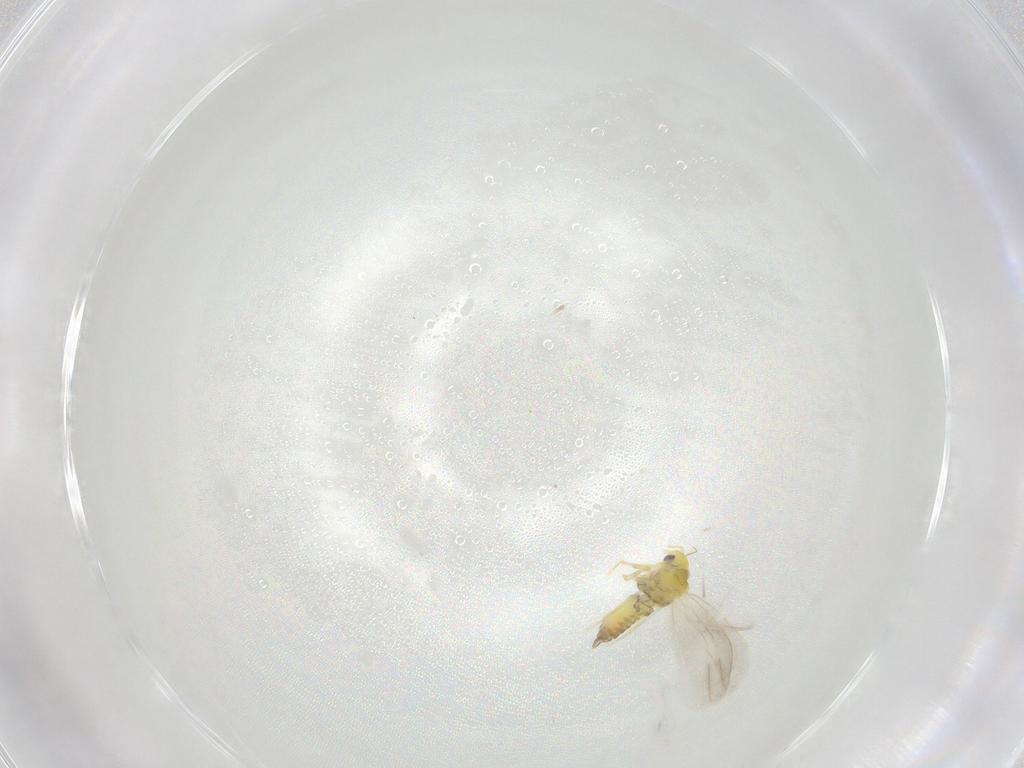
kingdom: Animalia
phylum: Arthropoda
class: Insecta
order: Hemiptera
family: Aleyrodidae
